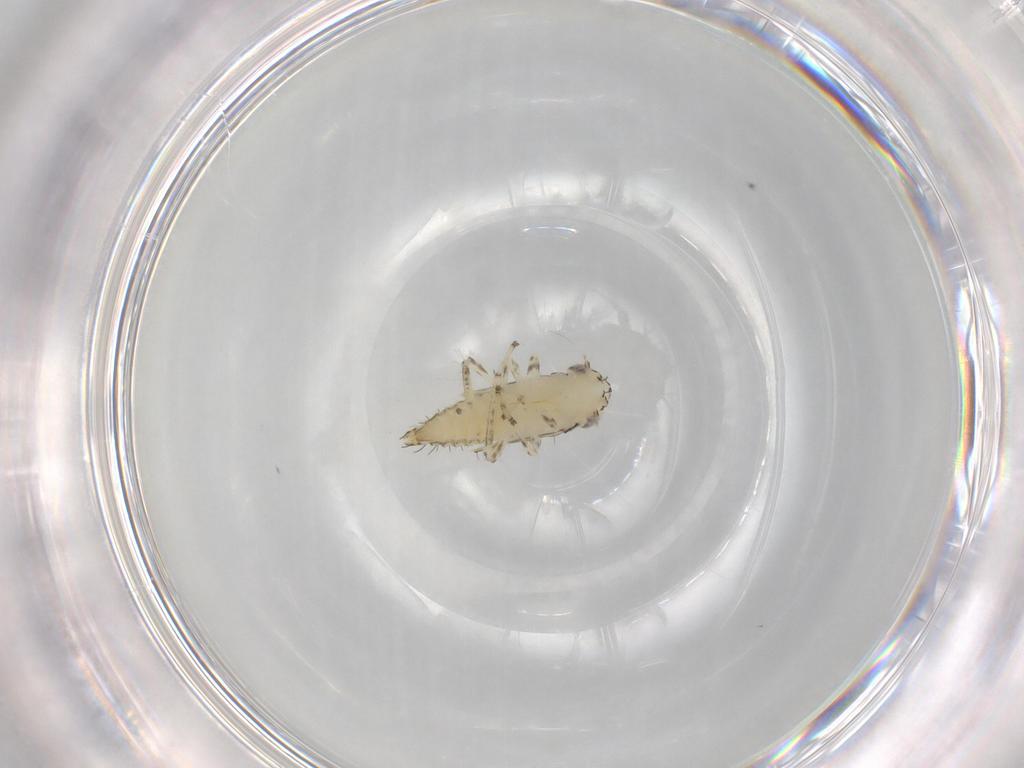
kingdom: Animalia
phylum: Arthropoda
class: Insecta
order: Hemiptera
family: Cicadellidae
